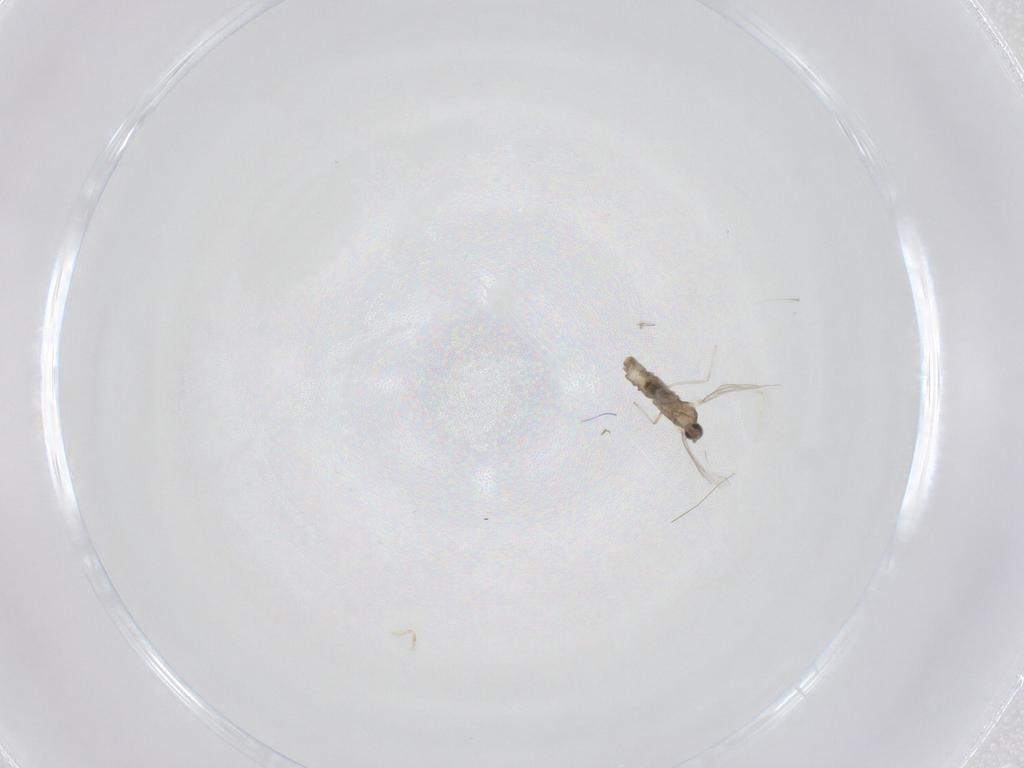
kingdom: Animalia
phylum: Arthropoda
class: Insecta
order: Diptera
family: Cecidomyiidae
